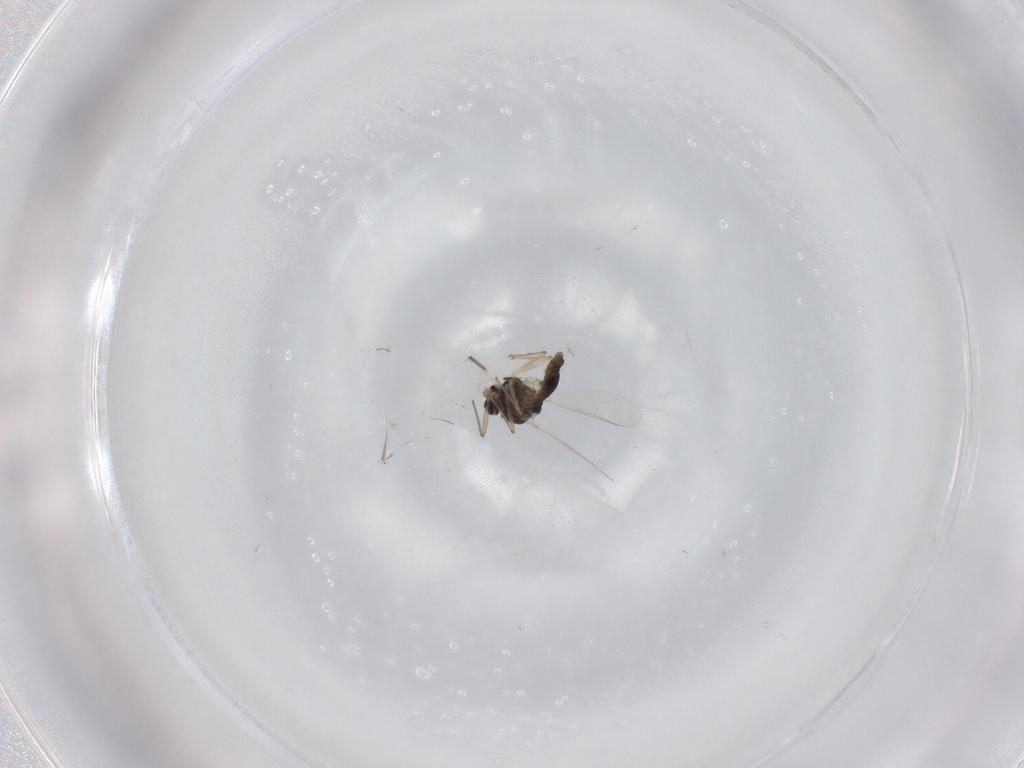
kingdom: Animalia
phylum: Arthropoda
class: Insecta
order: Diptera
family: Chironomidae
